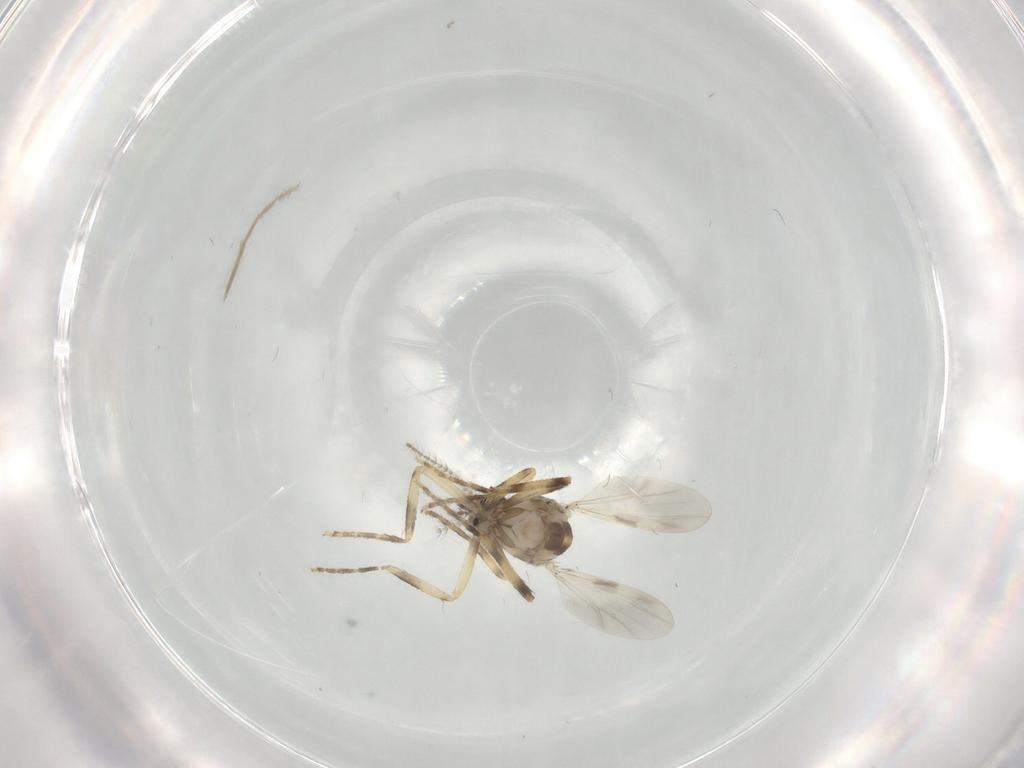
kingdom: Animalia
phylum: Arthropoda
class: Insecta
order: Diptera
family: Ceratopogonidae
